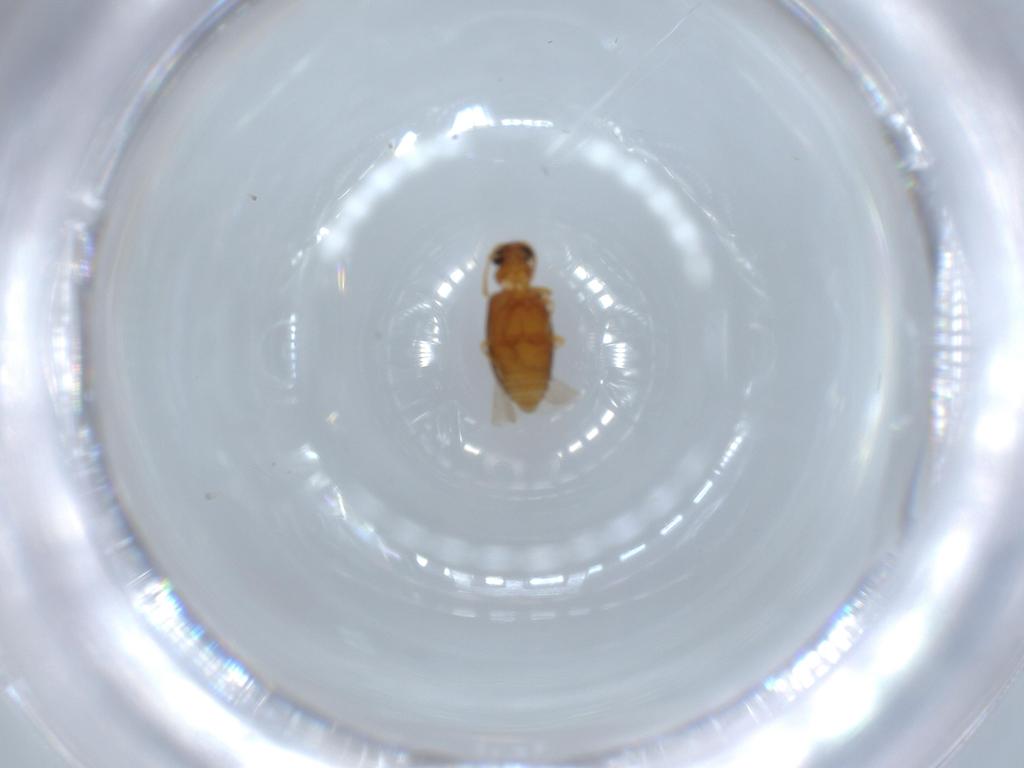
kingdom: Animalia
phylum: Arthropoda
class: Insecta
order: Coleoptera
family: Aderidae
